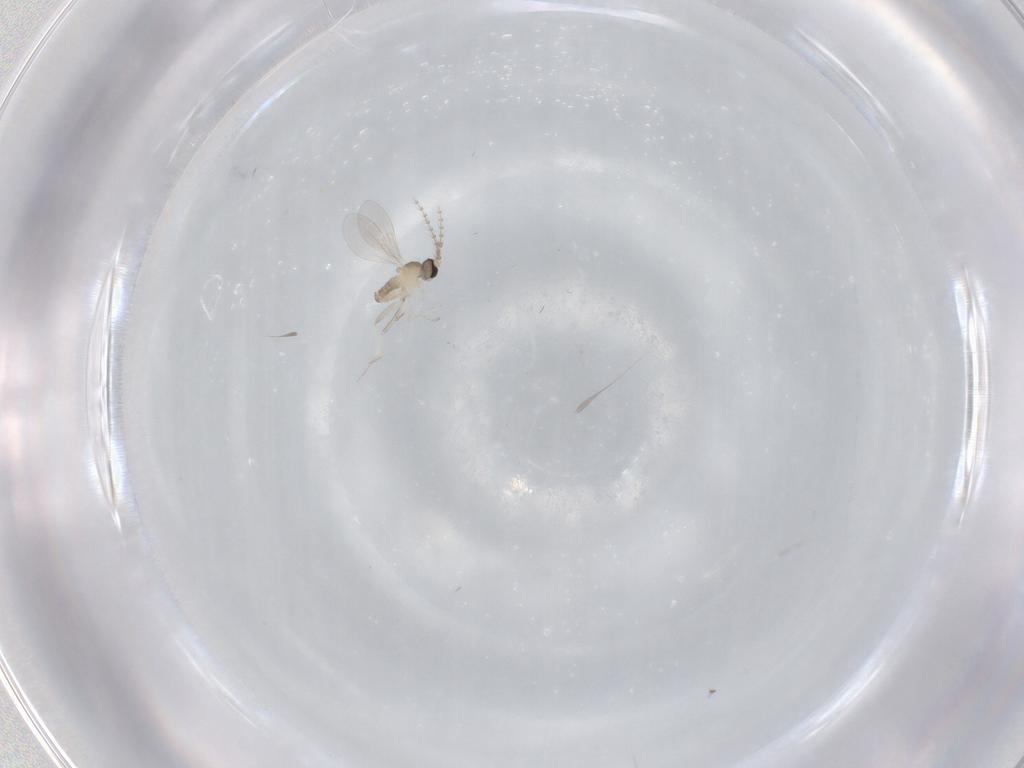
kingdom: Animalia
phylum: Arthropoda
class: Insecta
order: Diptera
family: Cecidomyiidae
